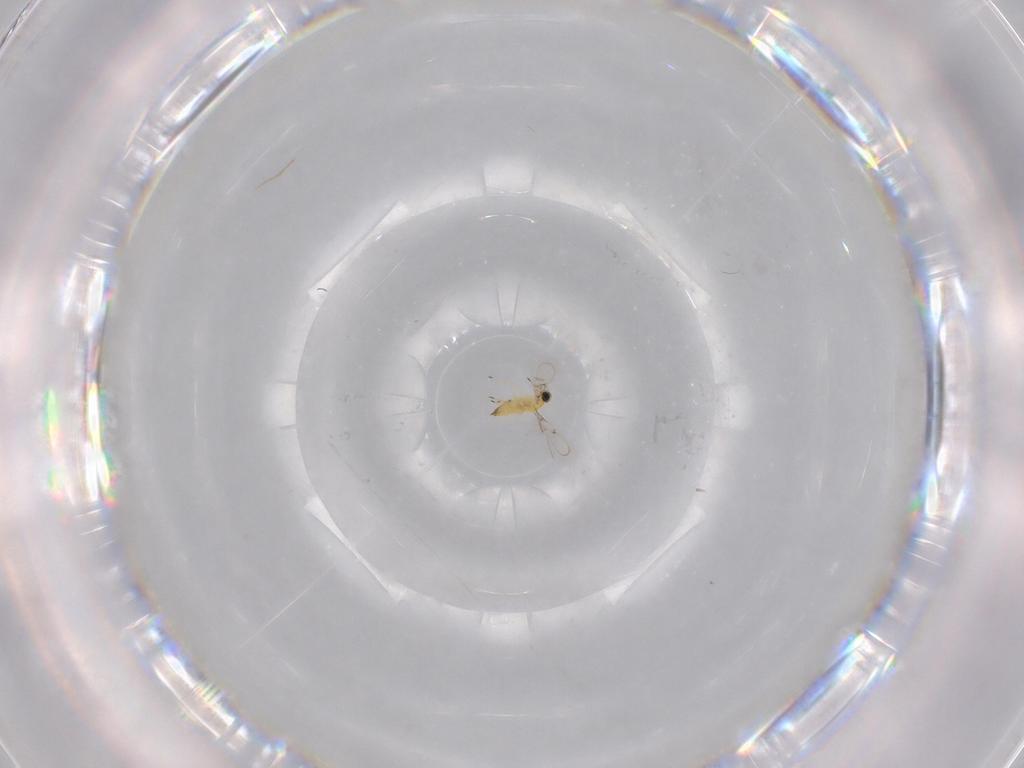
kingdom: Animalia
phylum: Arthropoda
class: Insecta
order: Hymenoptera
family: Trichogrammatidae
